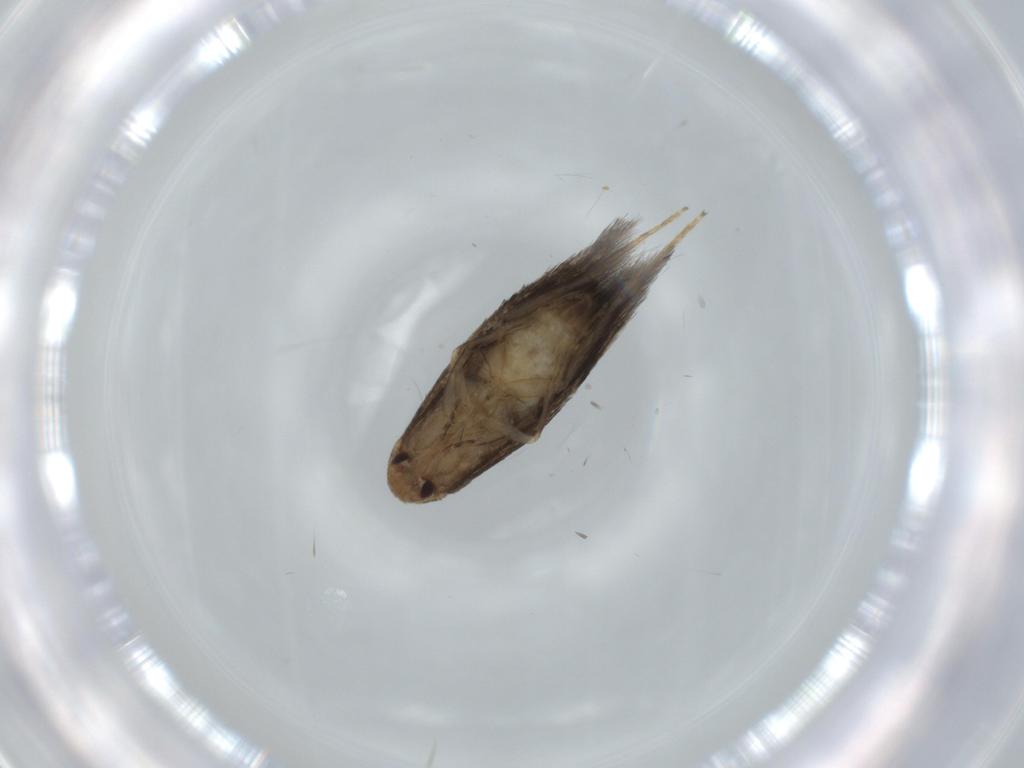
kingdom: Animalia
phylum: Arthropoda
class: Insecta
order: Lepidoptera
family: Gelechiidae
